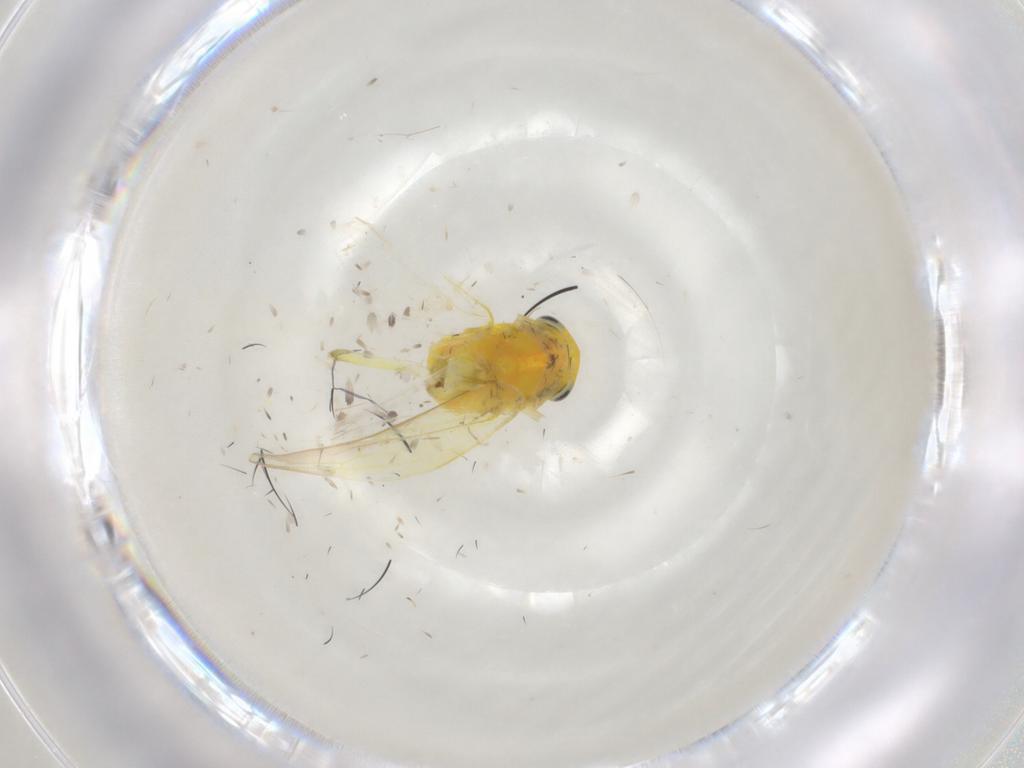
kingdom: Animalia
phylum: Arthropoda
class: Insecta
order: Hemiptera
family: Cicadellidae
